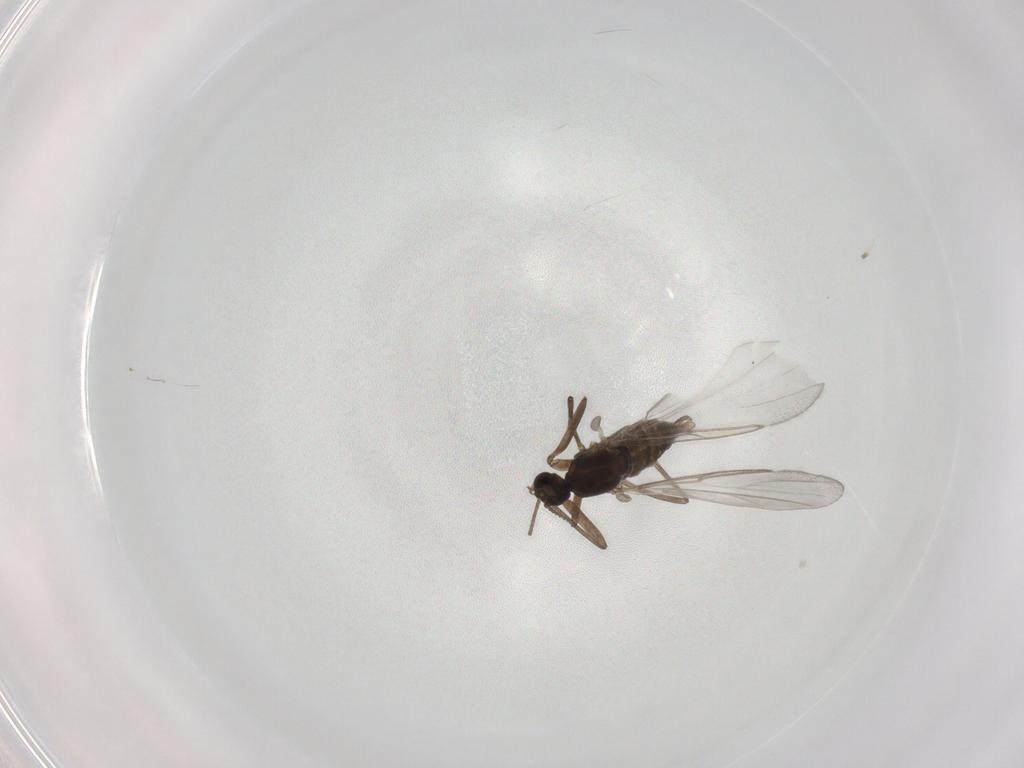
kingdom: Animalia
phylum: Arthropoda
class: Insecta
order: Diptera
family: Cecidomyiidae
